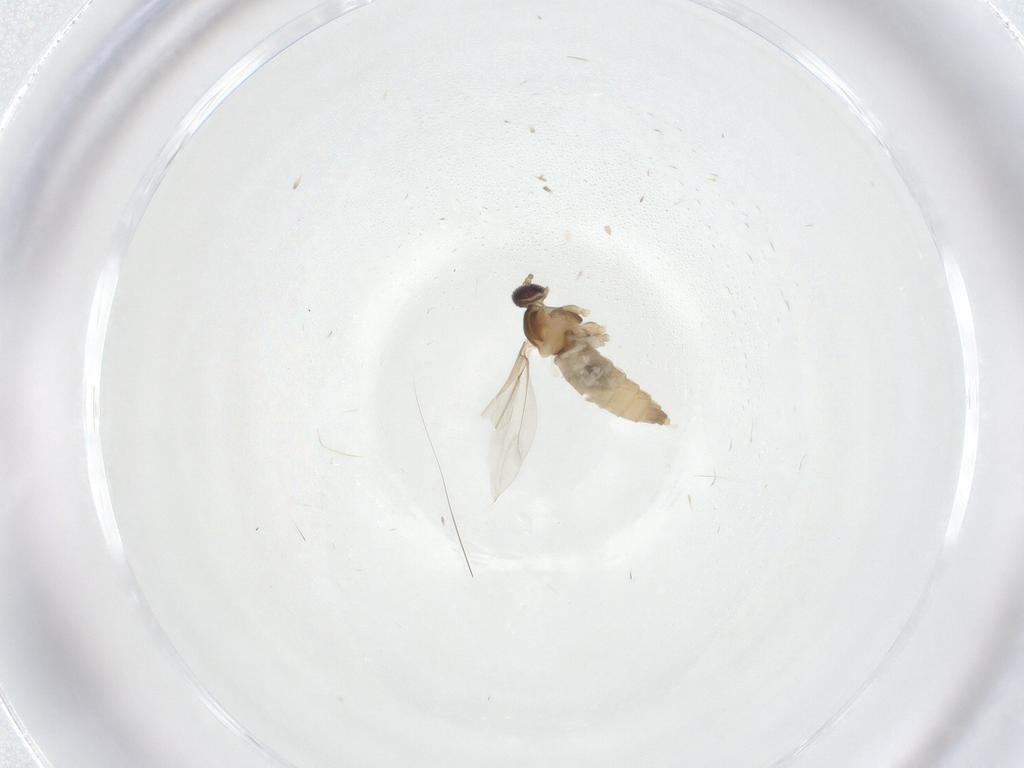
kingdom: Animalia
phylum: Arthropoda
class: Insecta
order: Diptera
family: Cecidomyiidae
